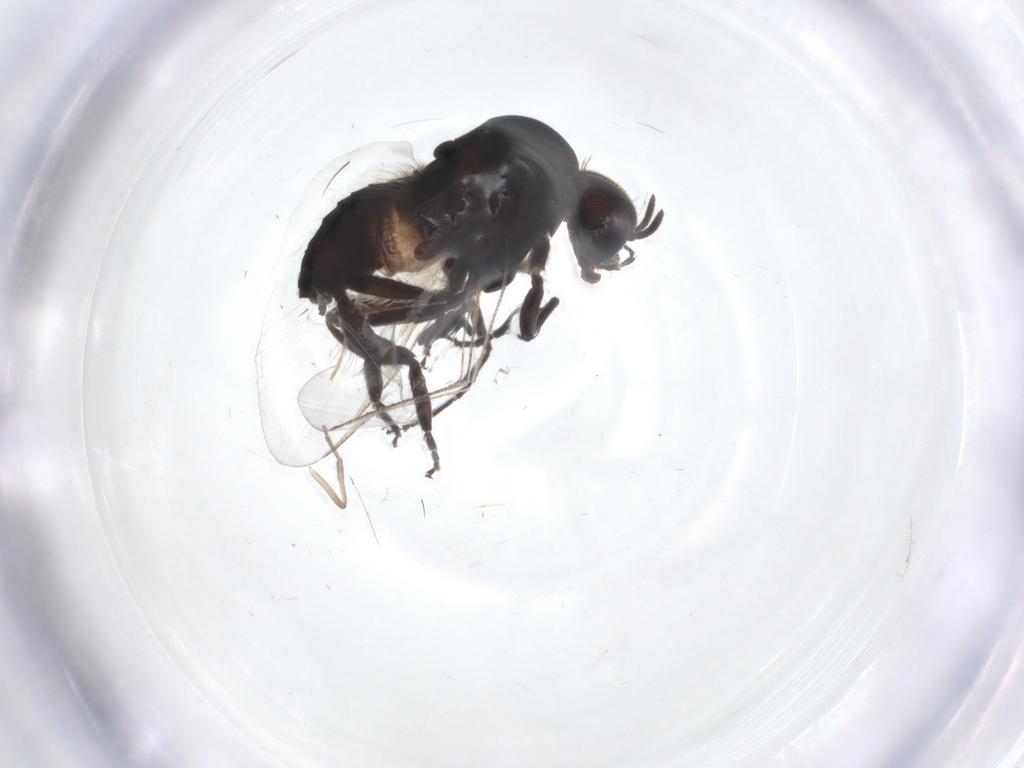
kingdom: Animalia
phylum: Arthropoda
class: Insecta
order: Diptera
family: Simuliidae
